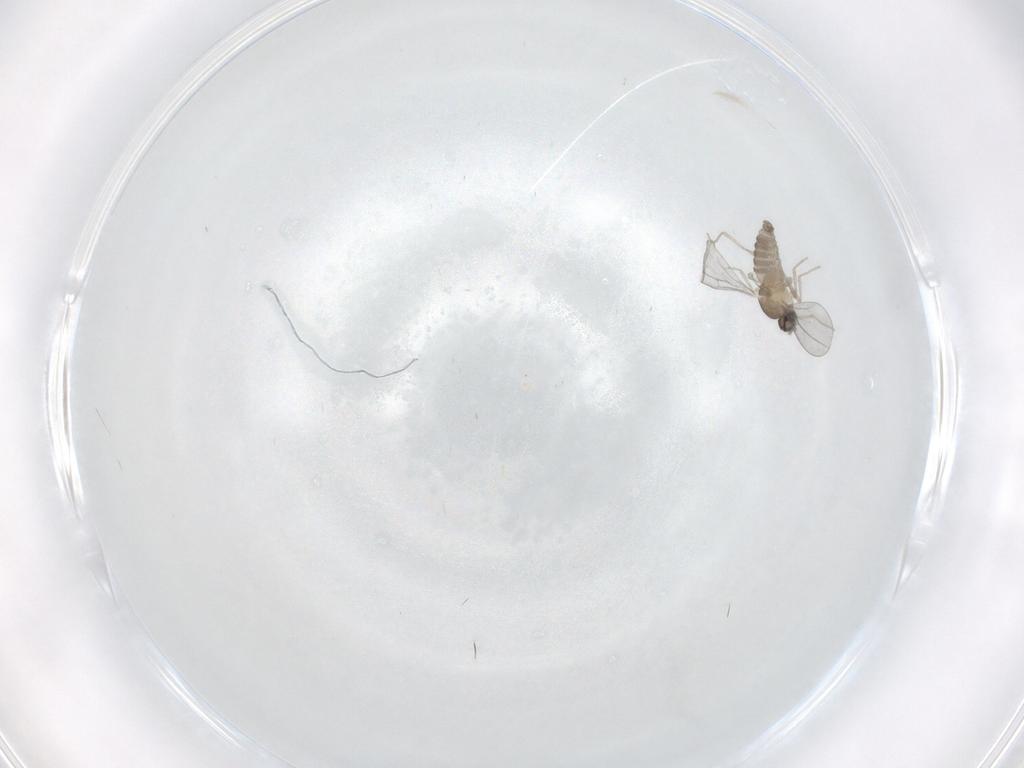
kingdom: Animalia
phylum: Arthropoda
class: Insecta
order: Diptera
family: Cecidomyiidae
